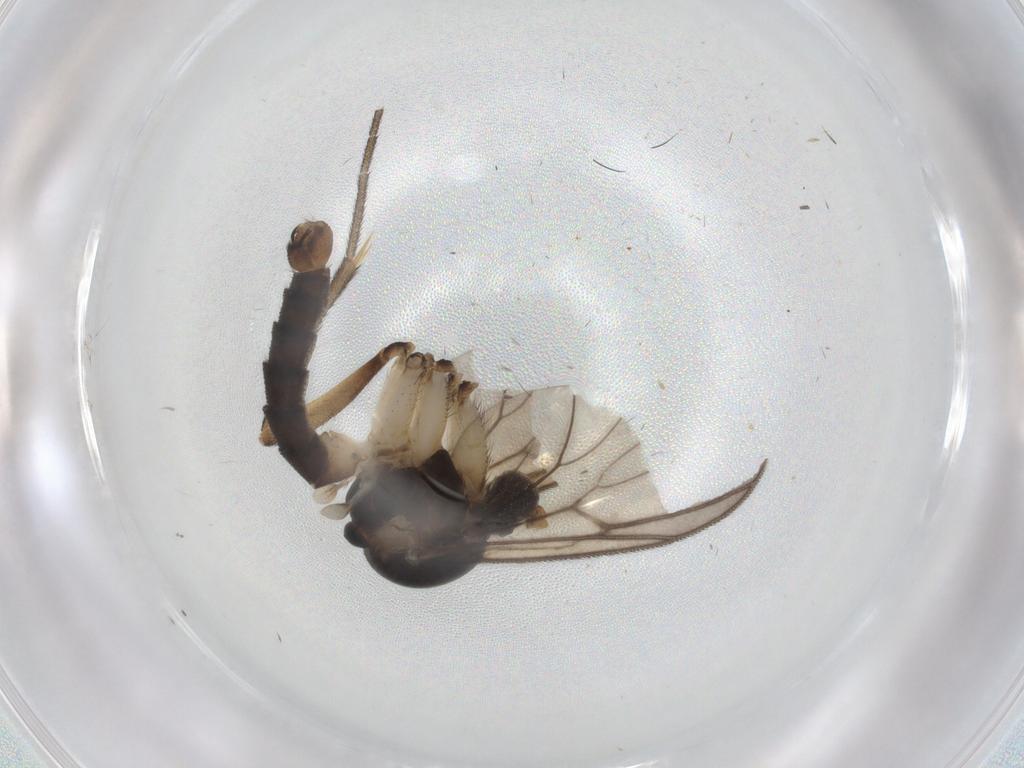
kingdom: Animalia
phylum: Arthropoda
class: Insecta
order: Diptera
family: Mycetophilidae
